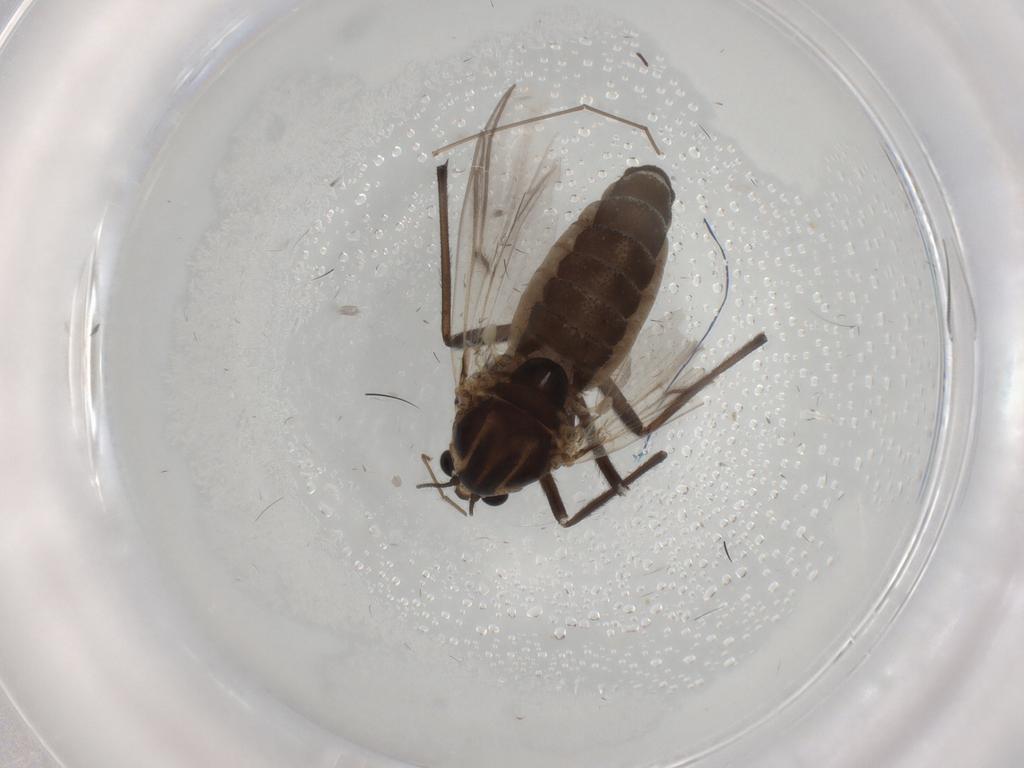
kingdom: Animalia
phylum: Arthropoda
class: Insecta
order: Diptera
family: Chironomidae
